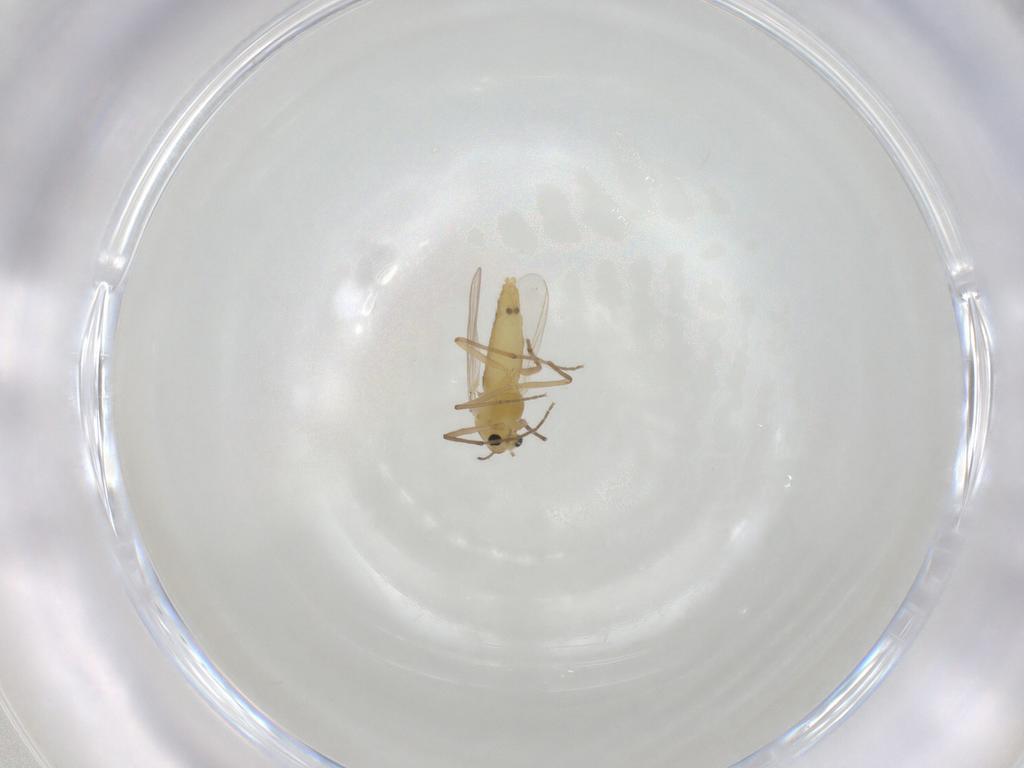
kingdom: Animalia
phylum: Arthropoda
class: Insecta
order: Diptera
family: Chironomidae
